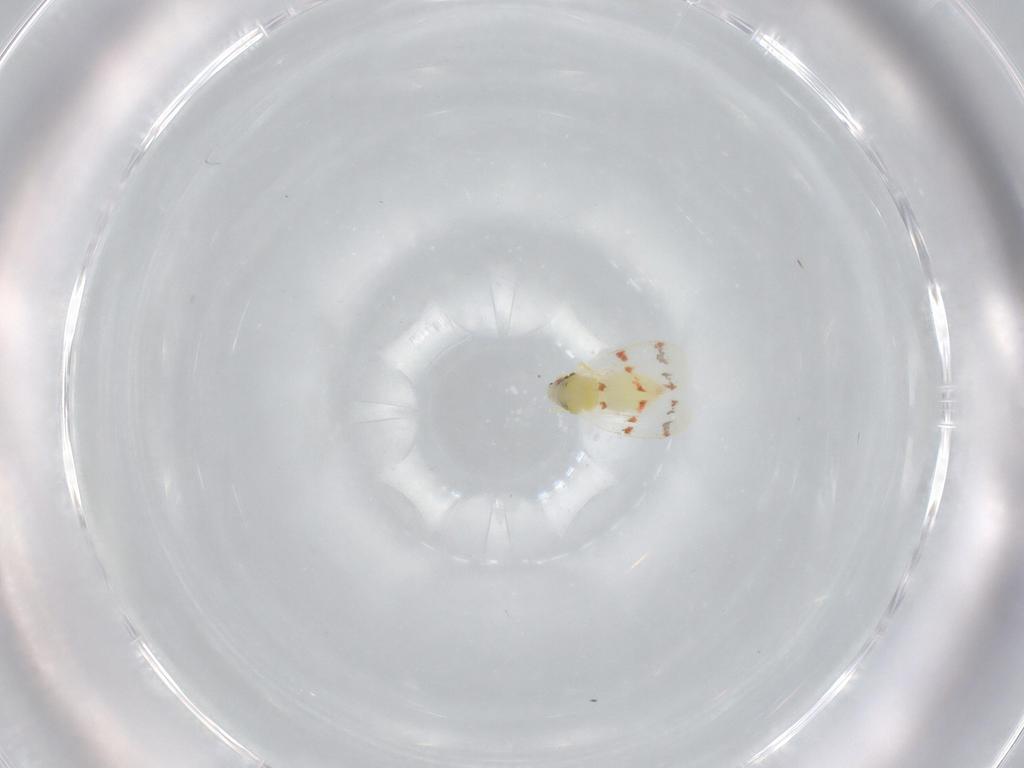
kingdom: Animalia
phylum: Arthropoda
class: Insecta
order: Hemiptera
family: Aleyrodidae
